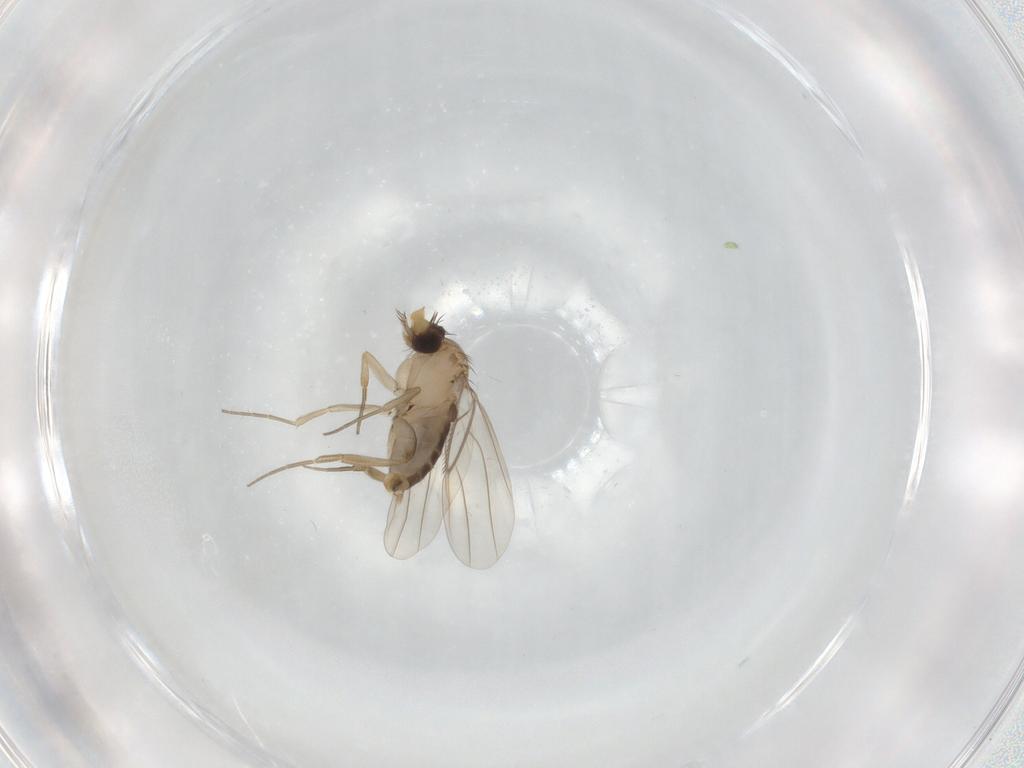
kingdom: Animalia
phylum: Arthropoda
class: Insecta
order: Diptera
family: Phoridae
